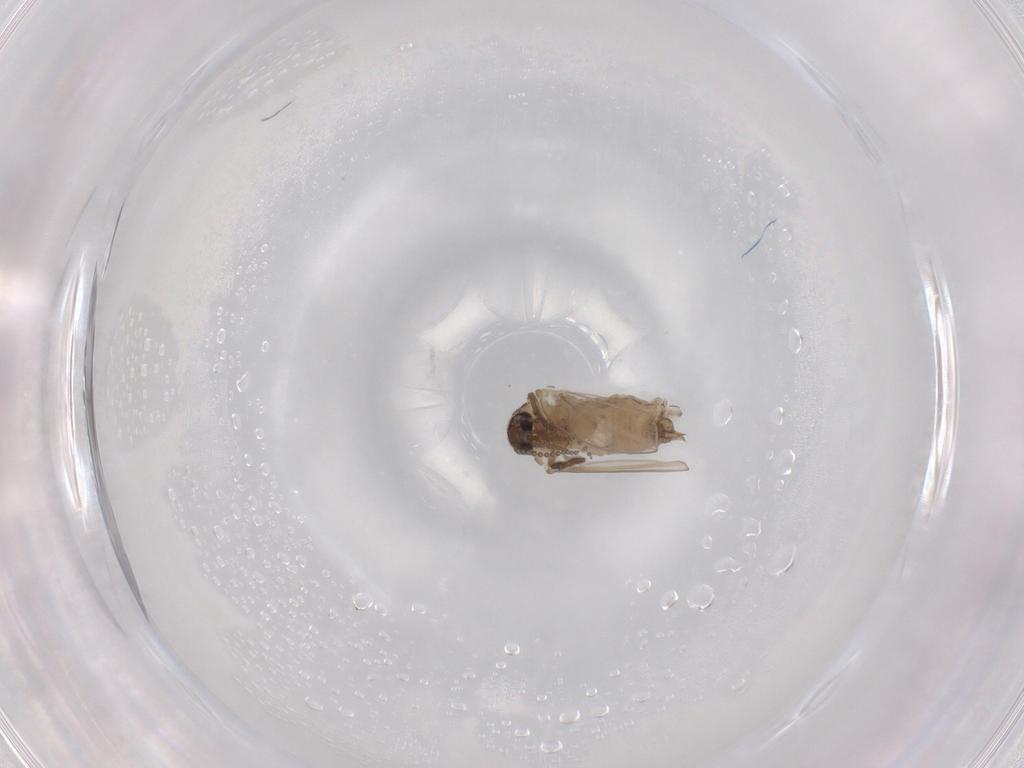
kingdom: Animalia
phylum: Arthropoda
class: Insecta
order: Diptera
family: Psychodidae
